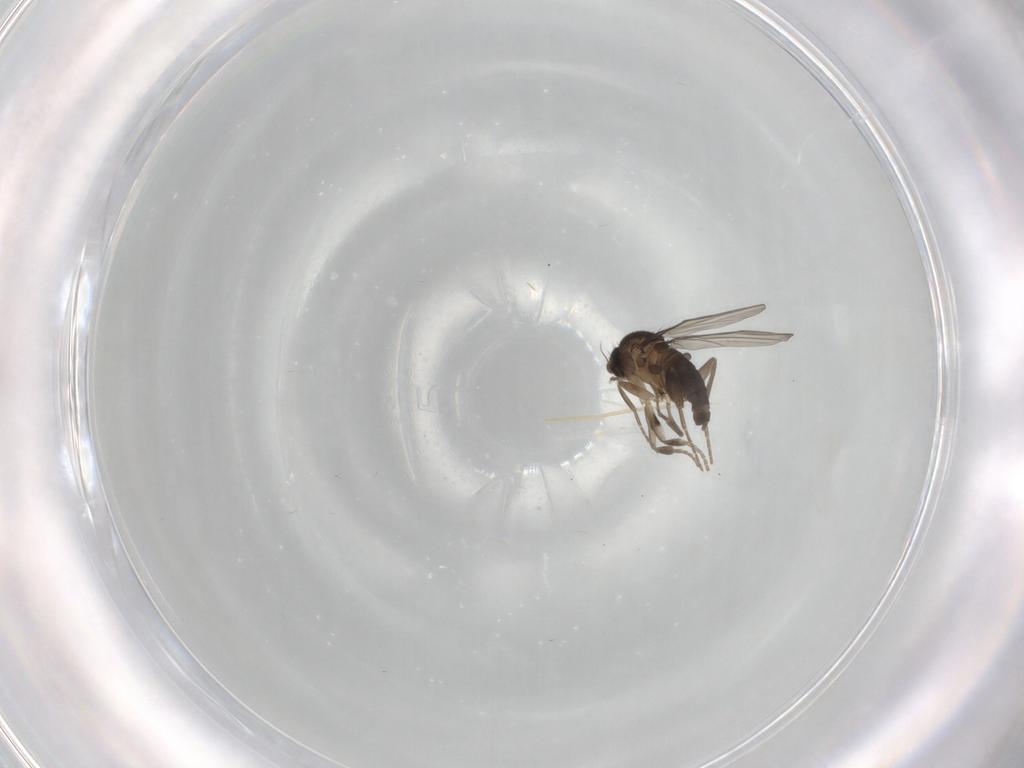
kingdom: Animalia
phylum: Arthropoda
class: Insecta
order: Diptera
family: Phoridae
